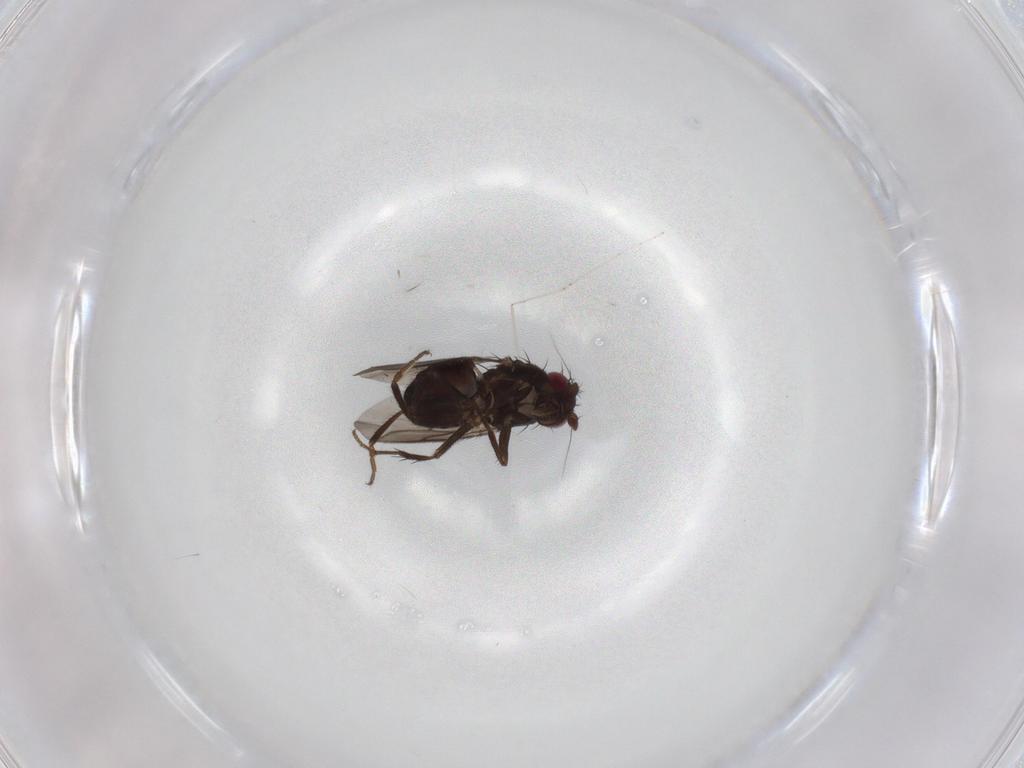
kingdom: Animalia
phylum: Arthropoda
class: Insecta
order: Diptera
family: Sphaeroceridae
